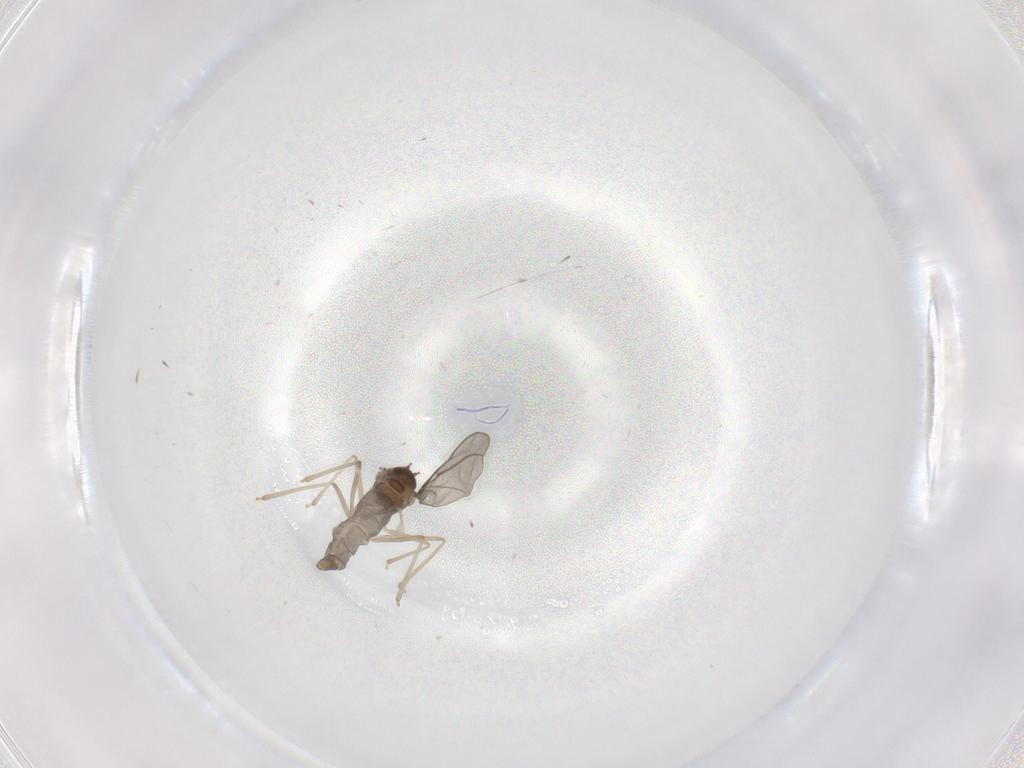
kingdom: Animalia
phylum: Arthropoda
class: Insecta
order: Diptera
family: Cecidomyiidae
